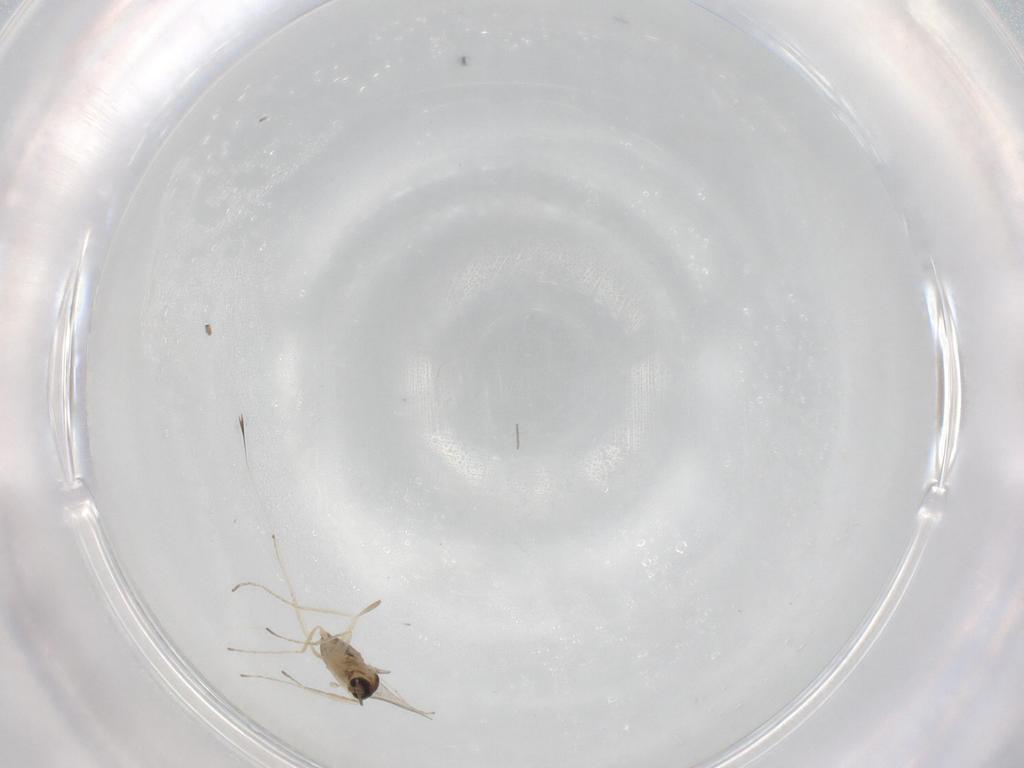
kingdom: Animalia
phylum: Arthropoda
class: Insecta
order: Diptera
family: Cecidomyiidae
